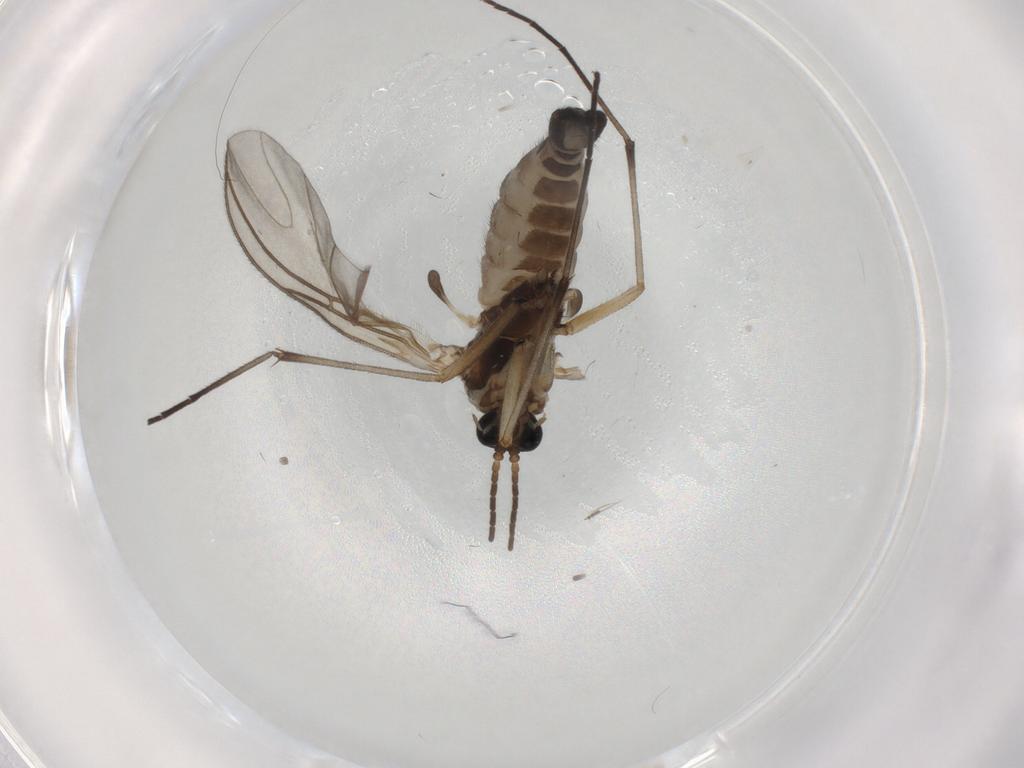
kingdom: Animalia
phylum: Arthropoda
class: Insecta
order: Diptera
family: Sciaridae
